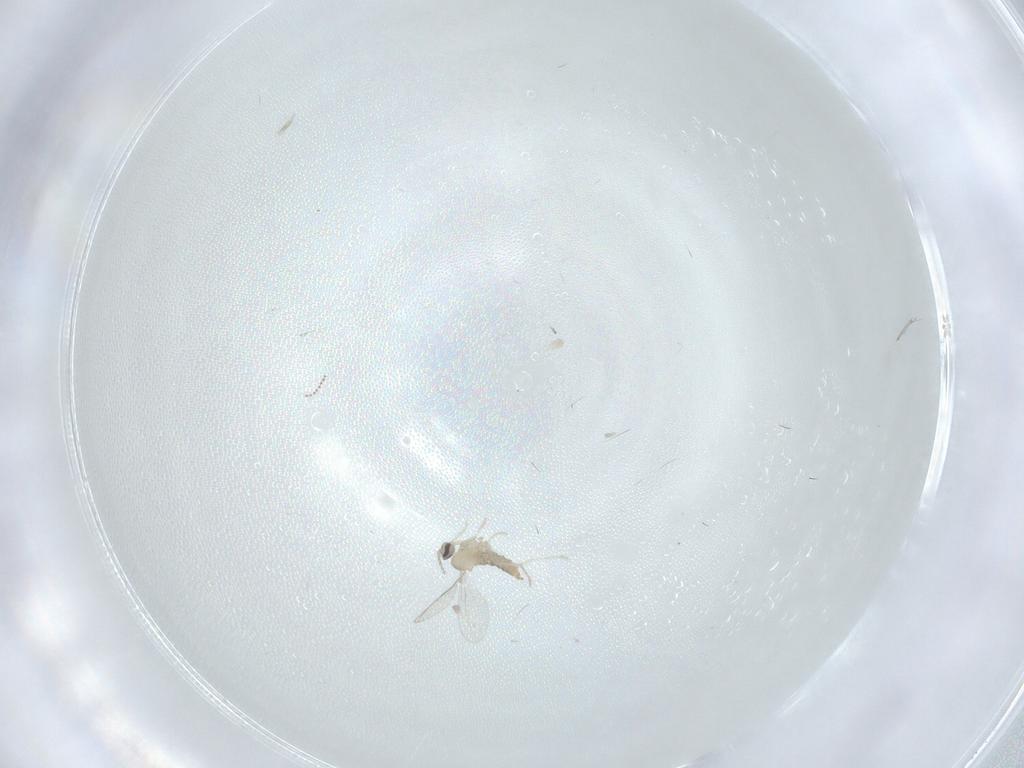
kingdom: Animalia
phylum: Arthropoda
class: Insecta
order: Diptera
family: Cecidomyiidae
